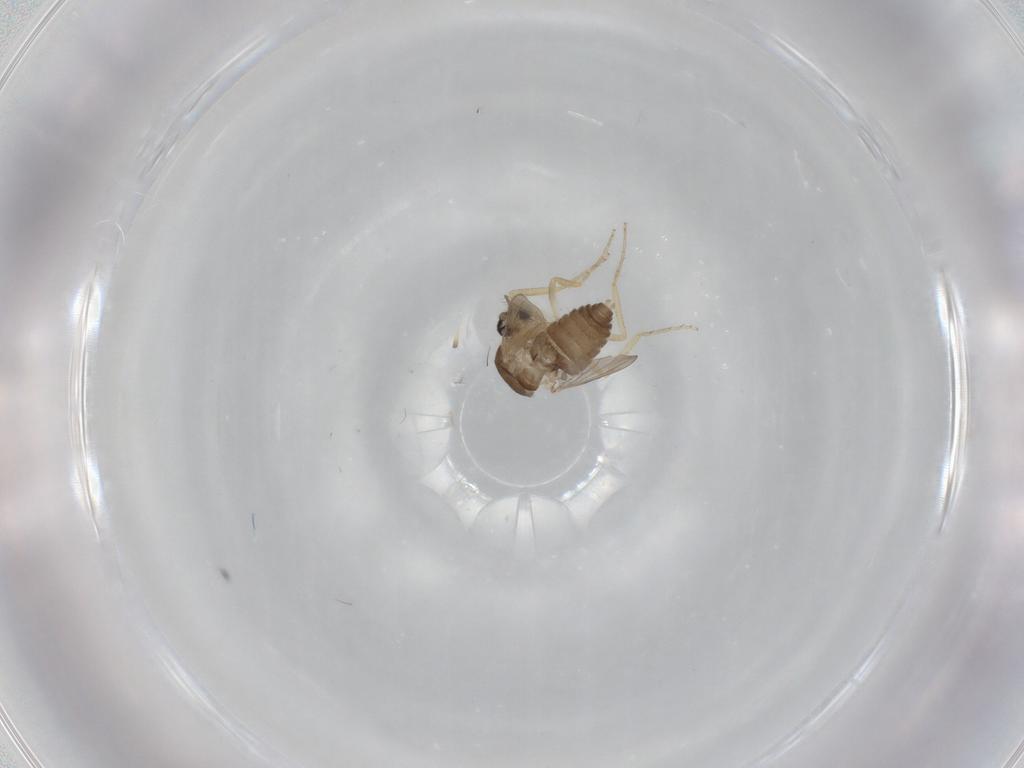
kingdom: Animalia
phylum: Arthropoda
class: Insecta
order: Diptera
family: Ceratopogonidae
